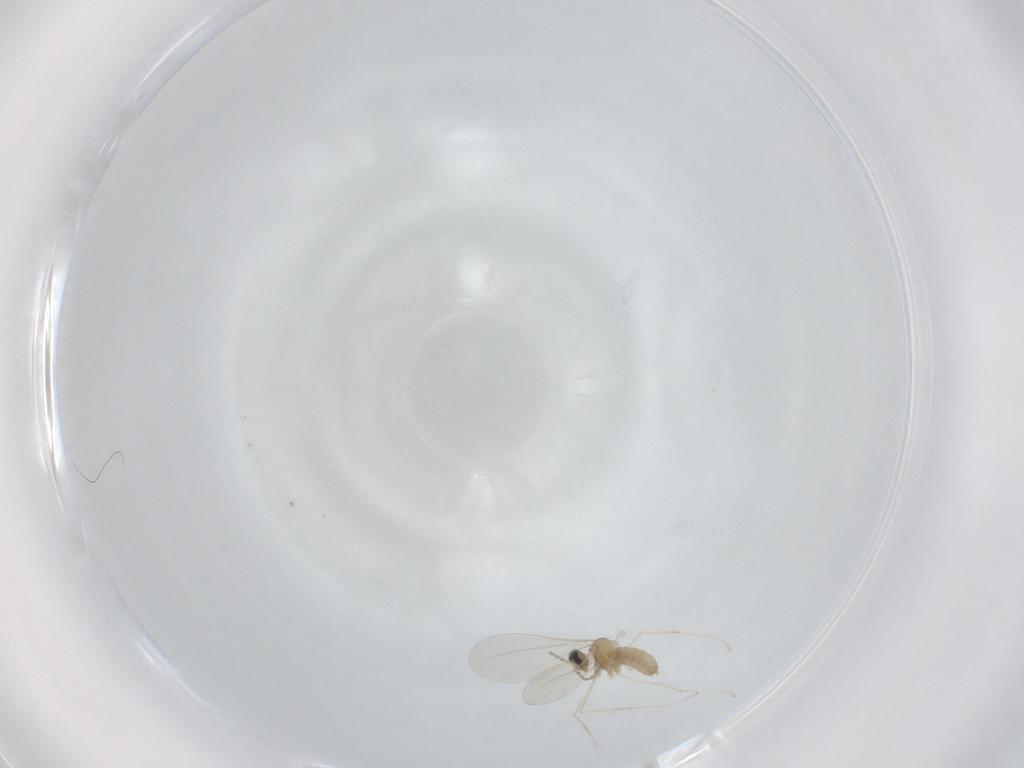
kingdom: Animalia
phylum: Arthropoda
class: Insecta
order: Diptera
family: Cecidomyiidae
